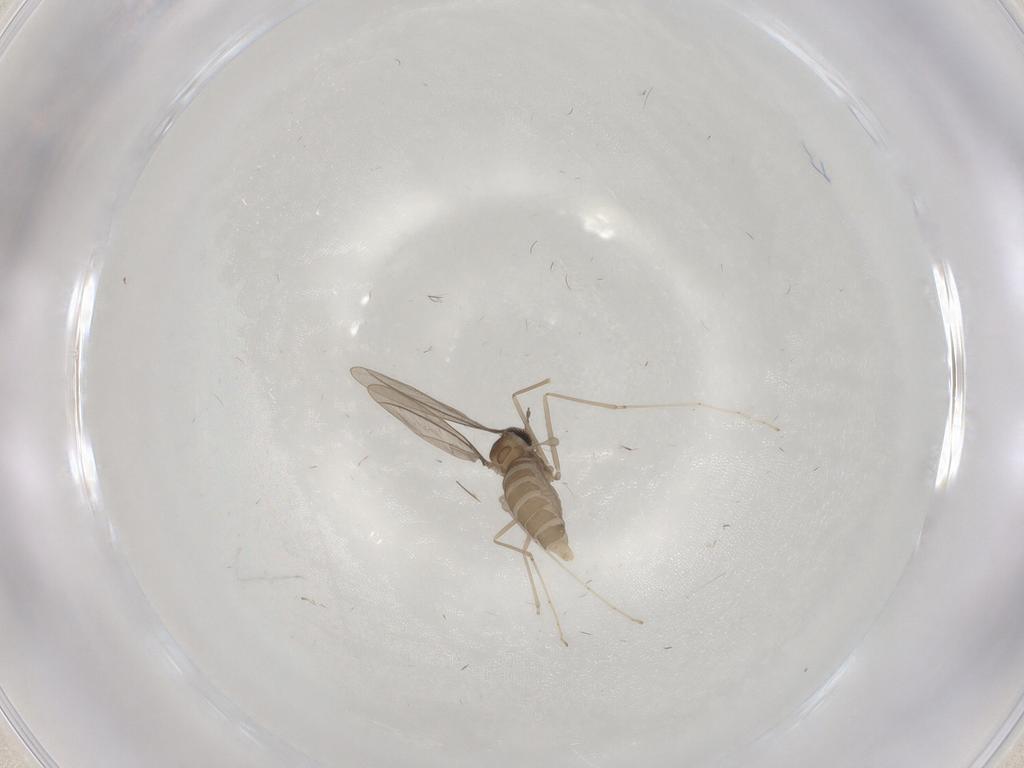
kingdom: Animalia
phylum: Arthropoda
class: Insecta
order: Diptera
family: Cecidomyiidae
